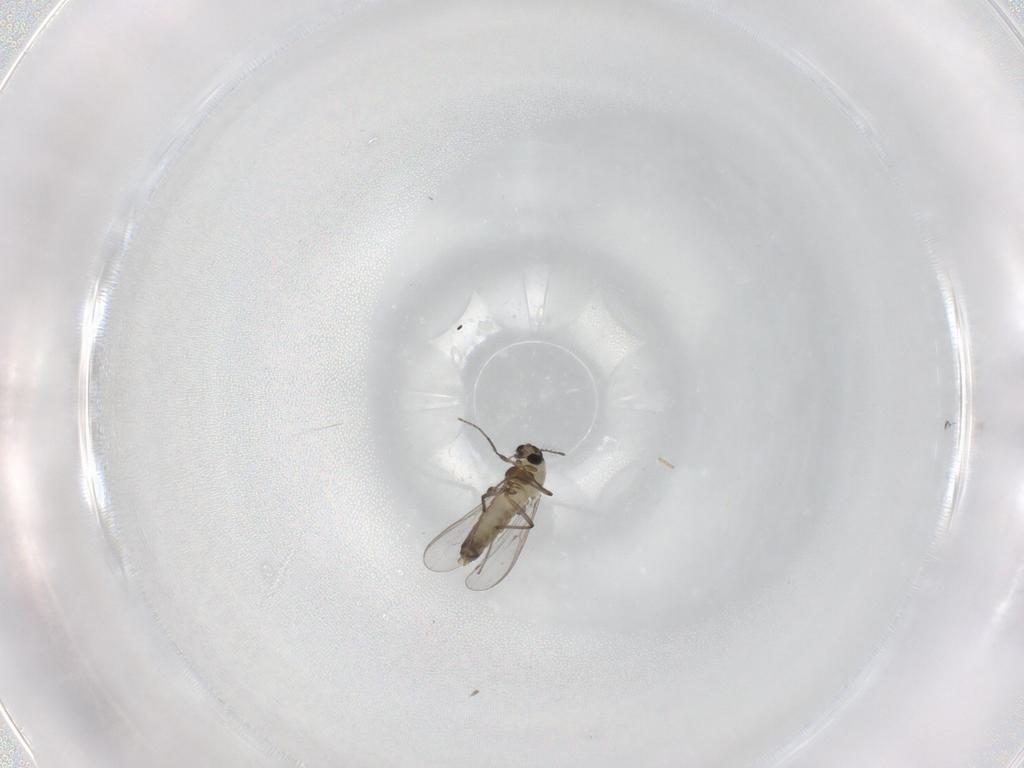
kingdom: Animalia
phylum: Arthropoda
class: Insecta
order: Diptera
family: Chironomidae
